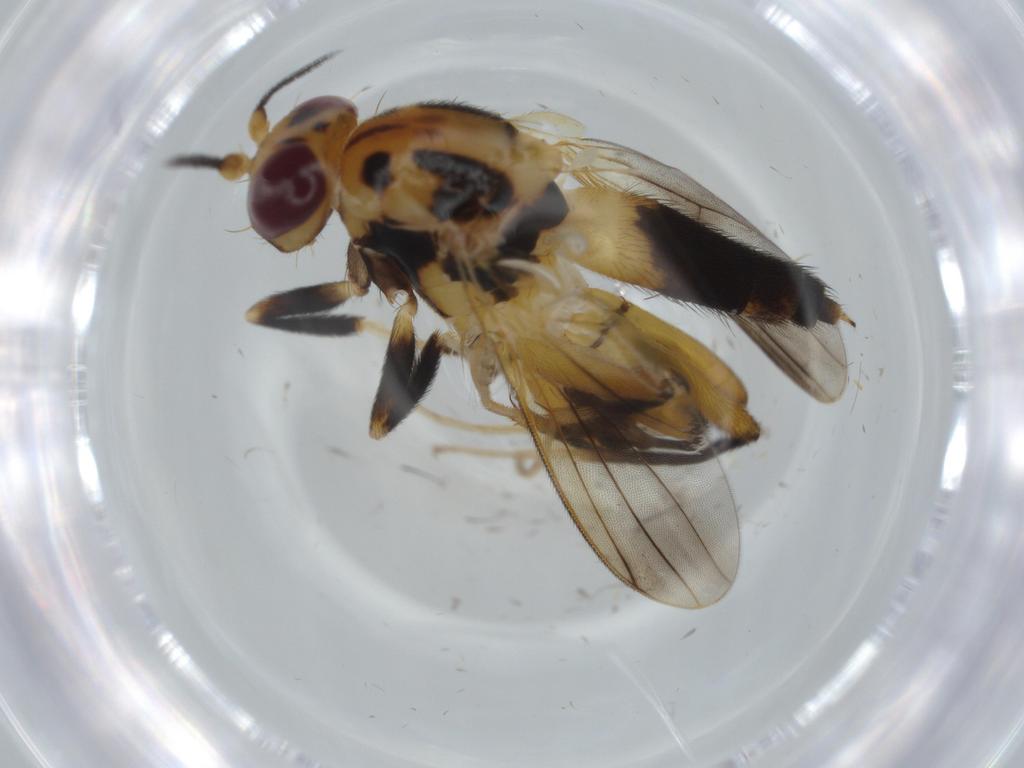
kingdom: Animalia
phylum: Arthropoda
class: Insecta
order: Diptera
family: Clusiidae
